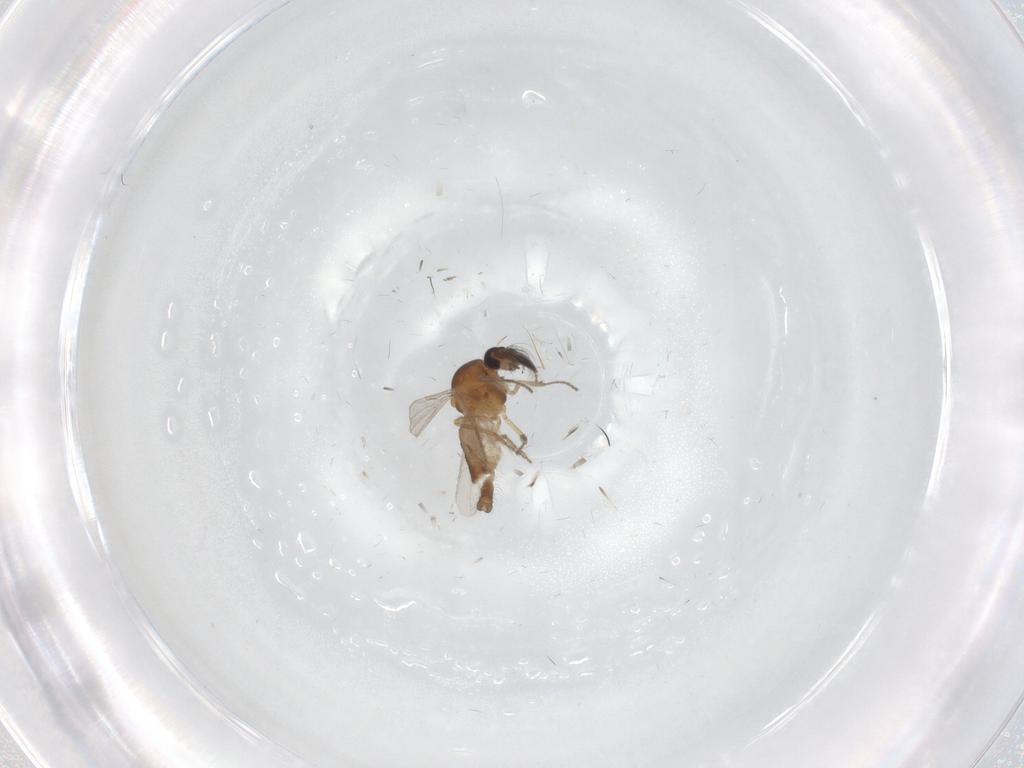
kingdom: Animalia
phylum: Arthropoda
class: Insecta
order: Diptera
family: Ceratopogonidae
